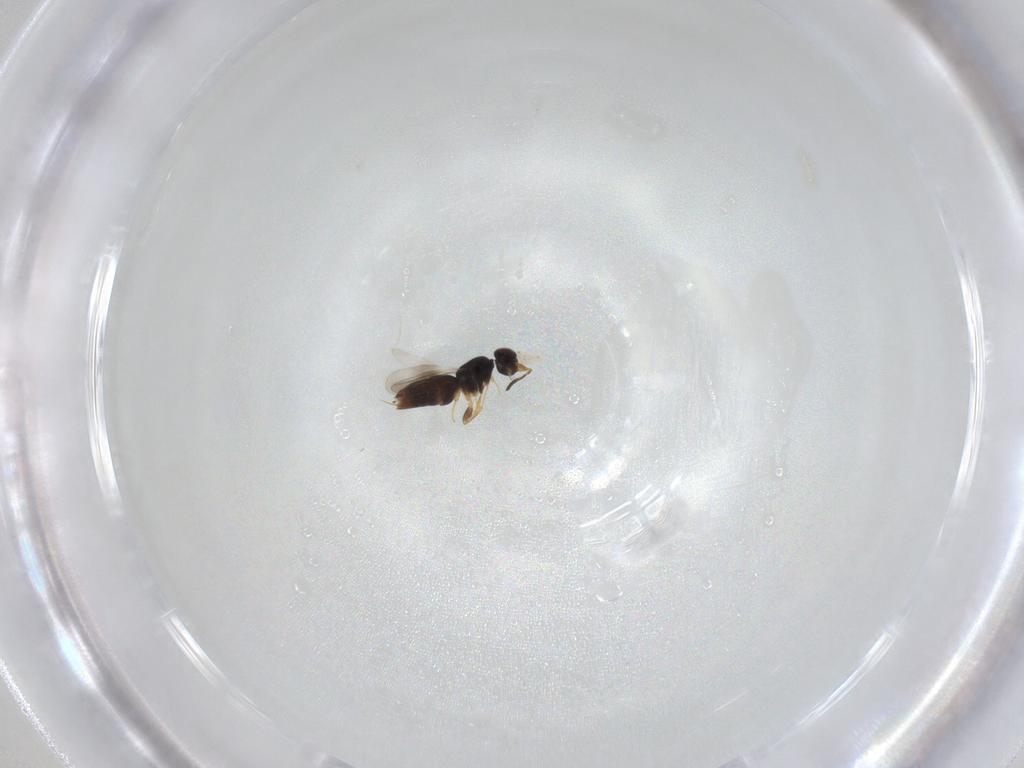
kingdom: Animalia
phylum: Arthropoda
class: Insecta
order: Hymenoptera
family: Ceraphronidae
